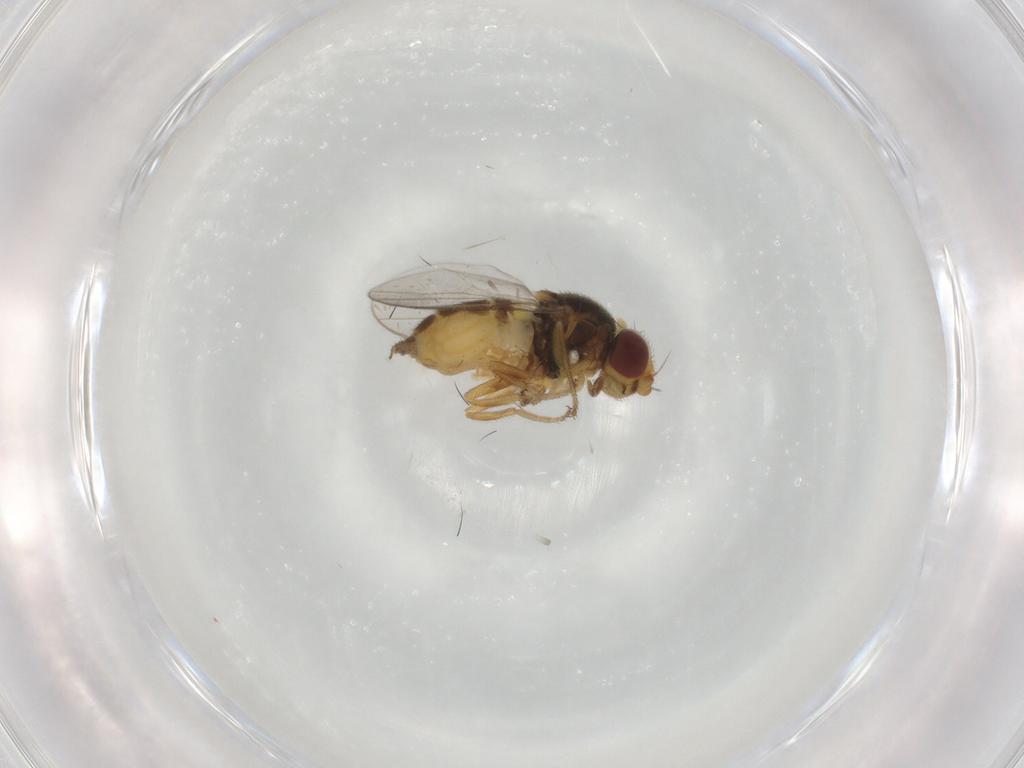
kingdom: Animalia
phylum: Arthropoda
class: Insecta
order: Diptera
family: Chloropidae
